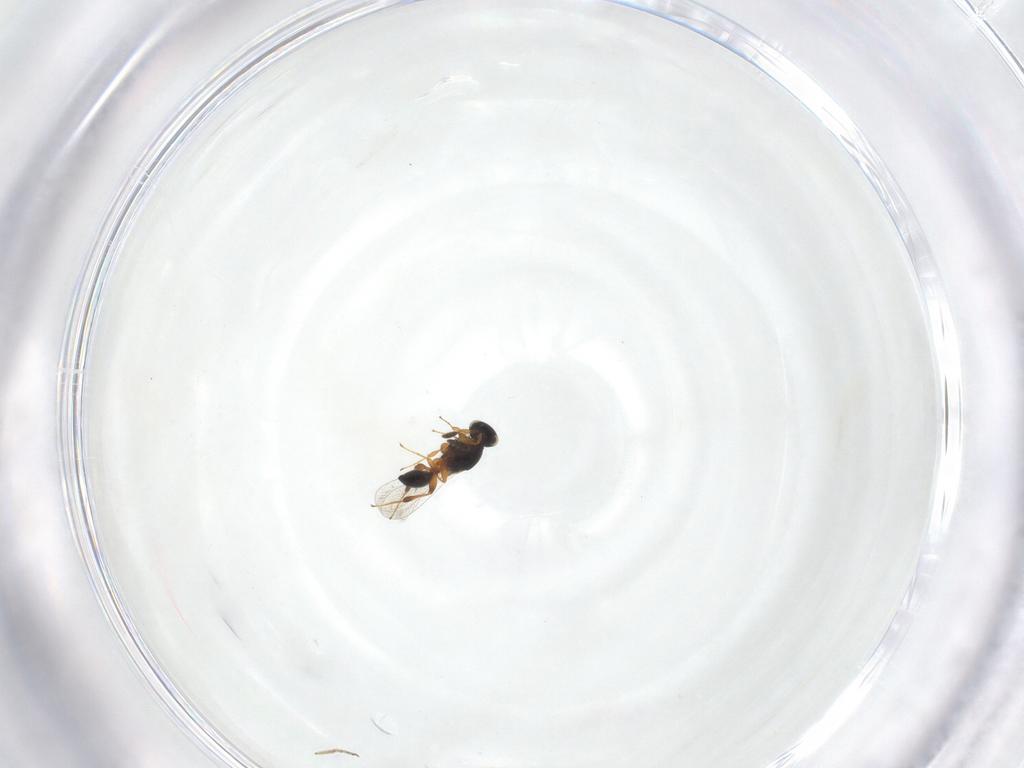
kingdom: Animalia
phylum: Arthropoda
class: Insecta
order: Hymenoptera
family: Platygastridae
